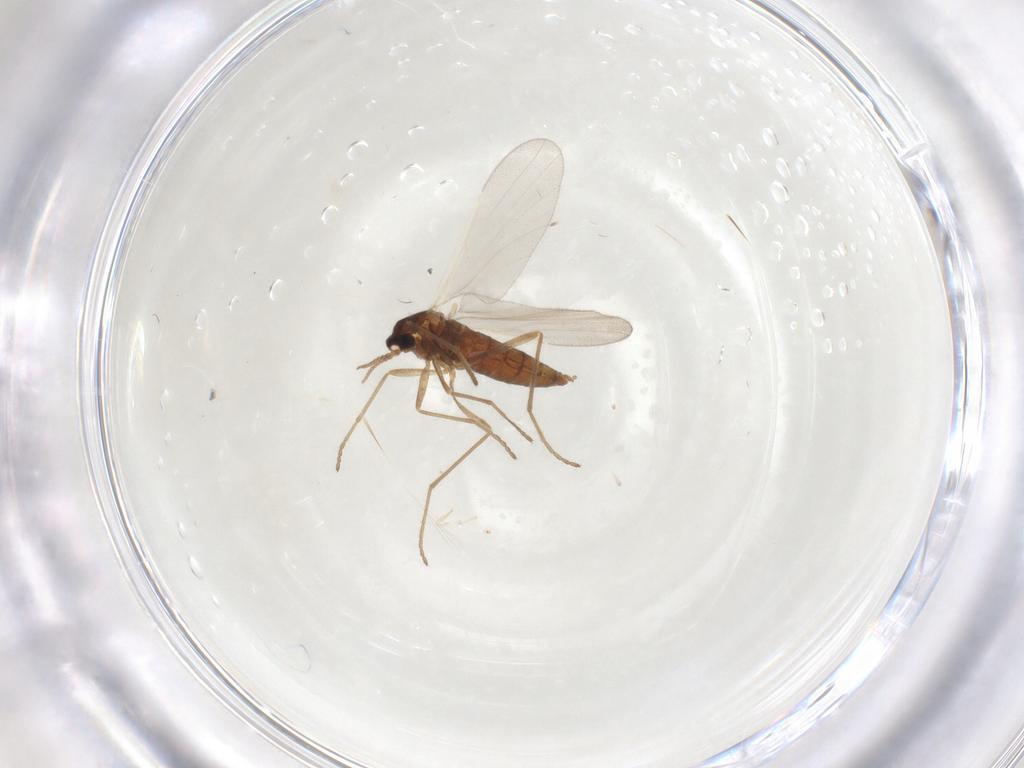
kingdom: Animalia
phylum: Arthropoda
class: Insecta
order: Diptera
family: Cecidomyiidae
